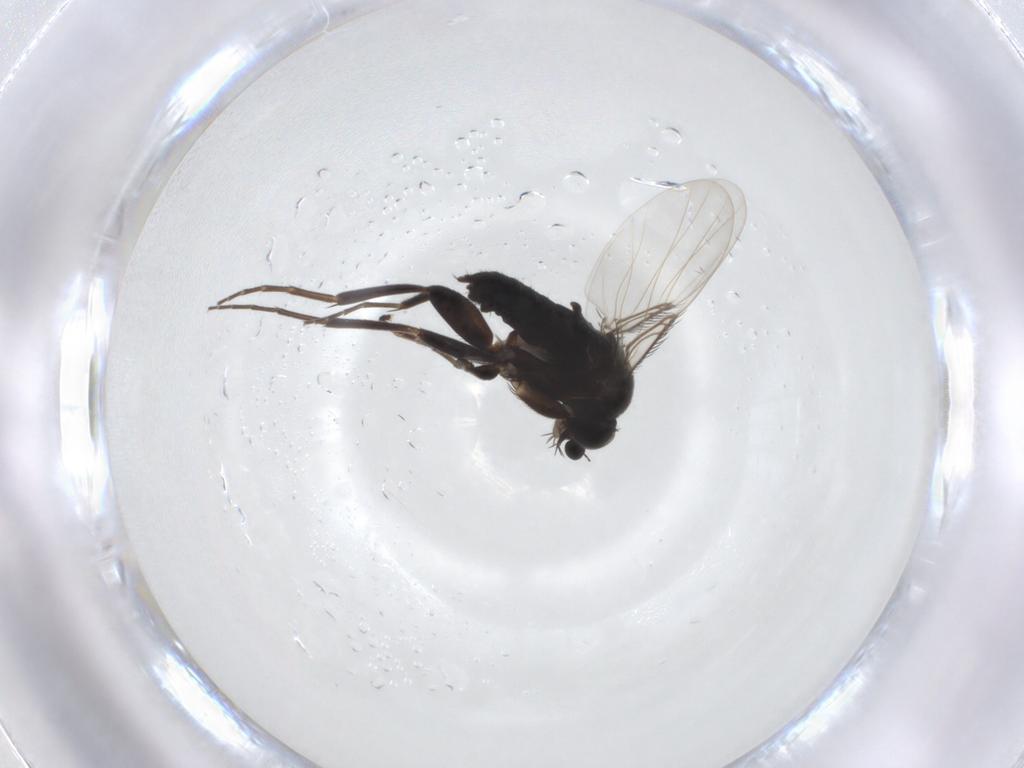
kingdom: Animalia
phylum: Arthropoda
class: Insecta
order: Diptera
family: Phoridae
